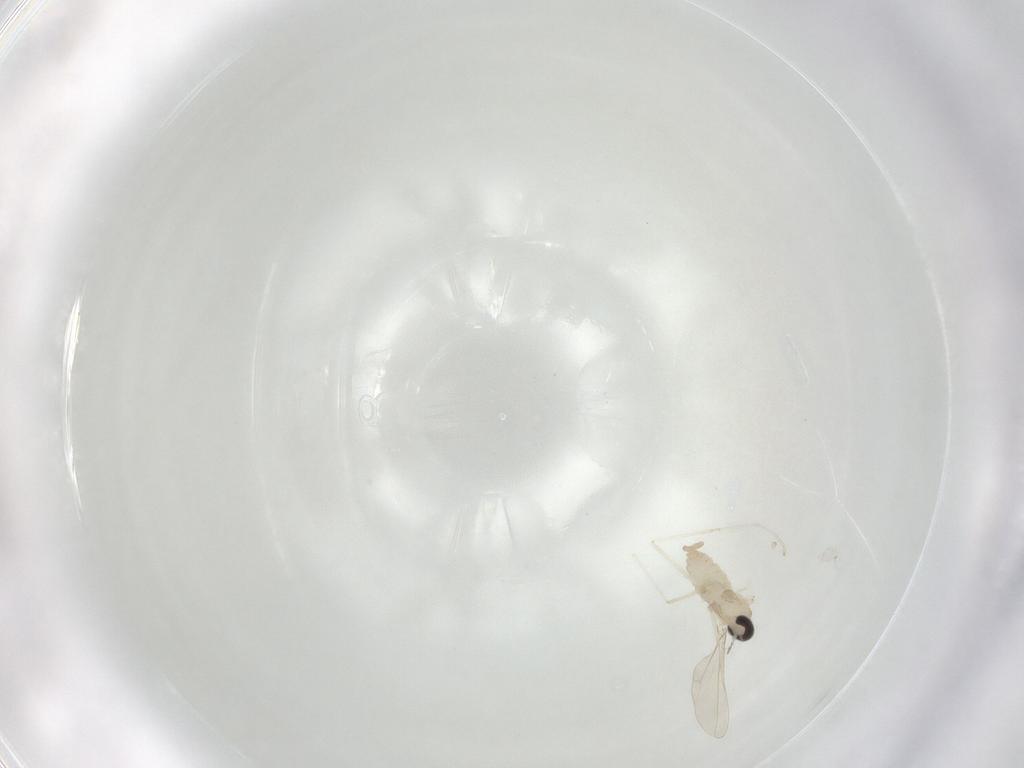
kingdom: Animalia
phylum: Arthropoda
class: Insecta
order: Diptera
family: Cecidomyiidae
